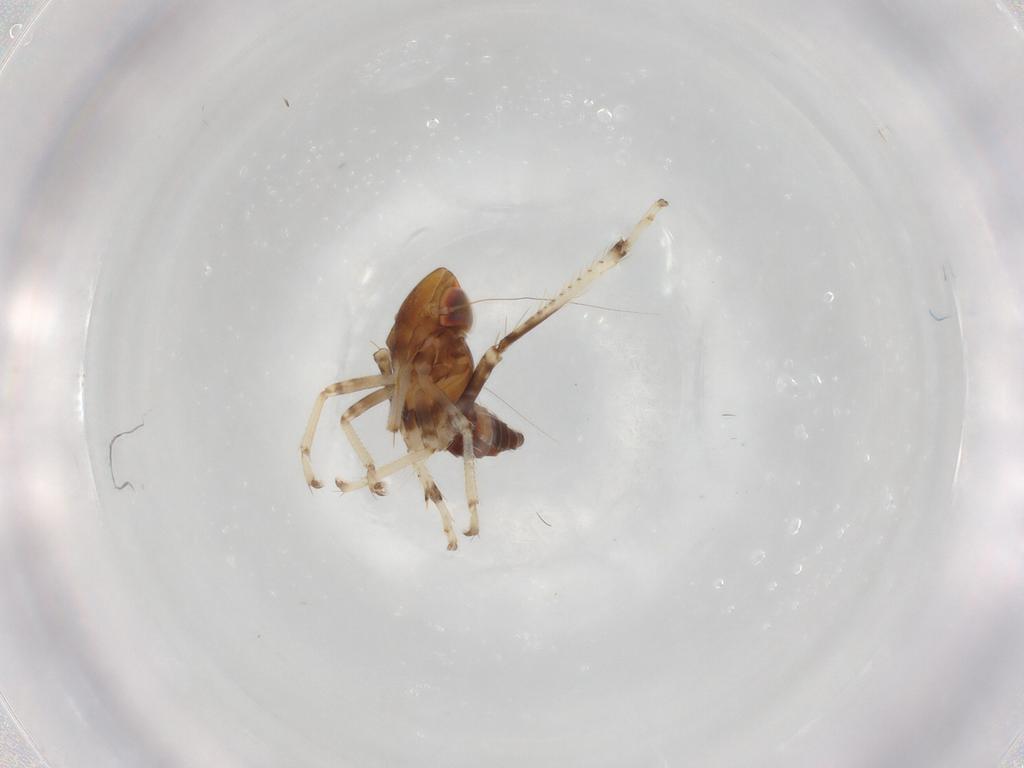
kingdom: Animalia
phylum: Arthropoda
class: Insecta
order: Hemiptera
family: Cicadellidae
